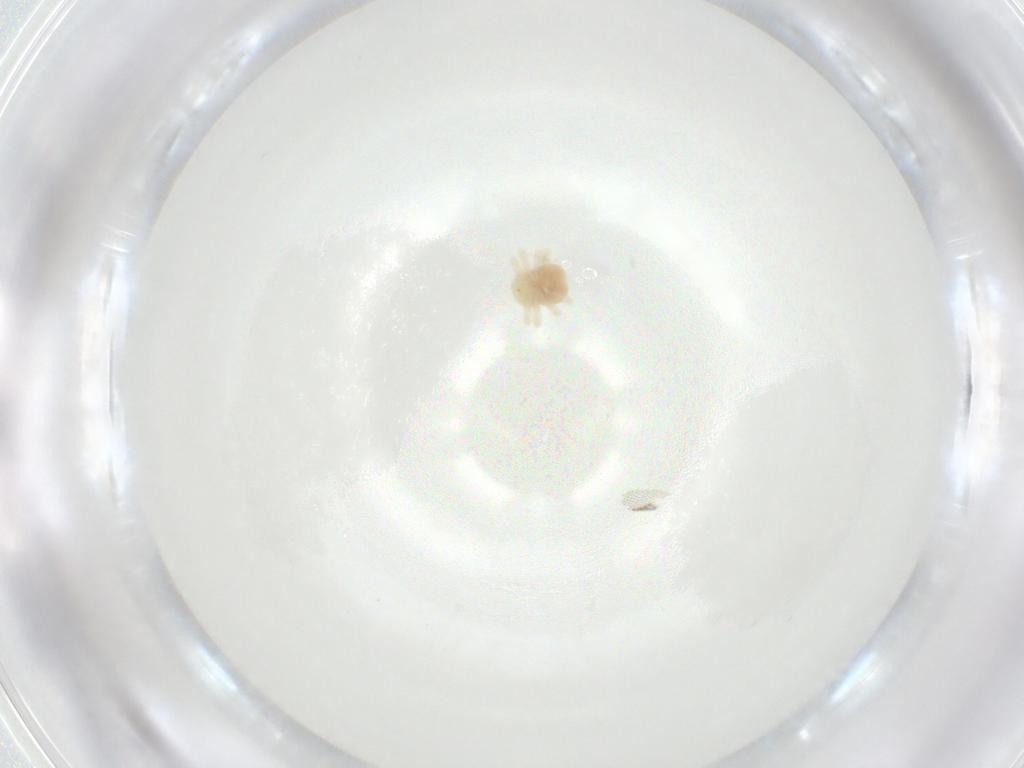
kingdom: Animalia
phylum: Arthropoda
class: Arachnida
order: Trombidiformes
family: Anystidae
